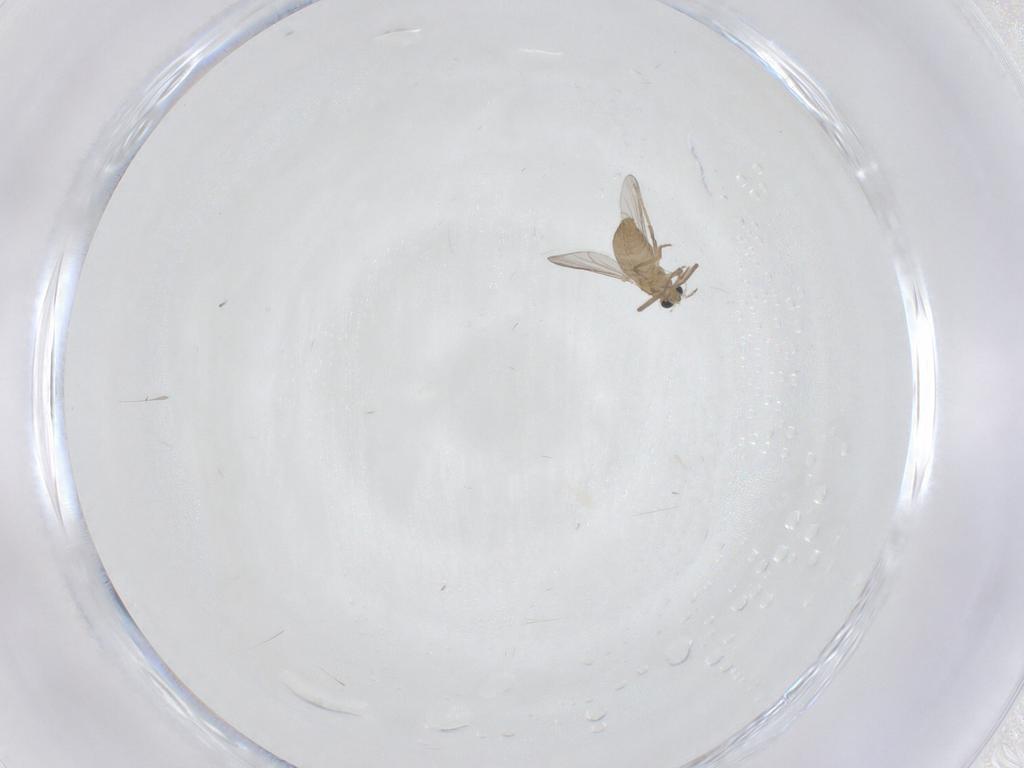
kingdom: Animalia
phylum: Arthropoda
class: Insecta
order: Diptera
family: Chironomidae
